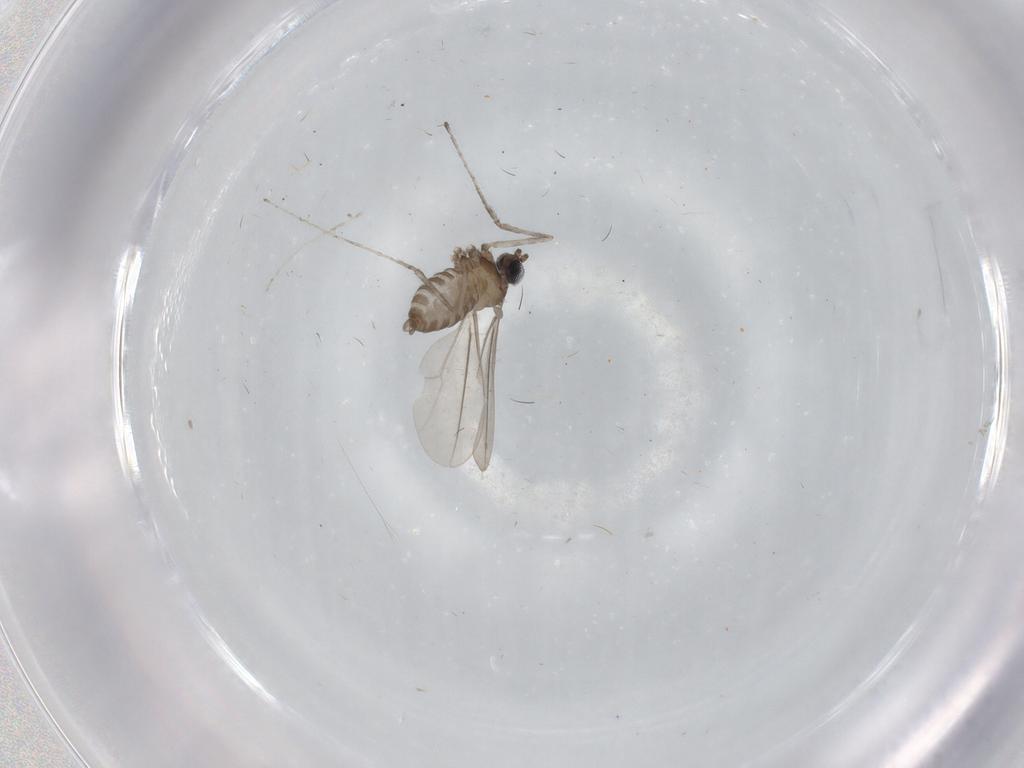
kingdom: Animalia
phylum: Arthropoda
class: Insecta
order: Diptera
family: Cecidomyiidae
